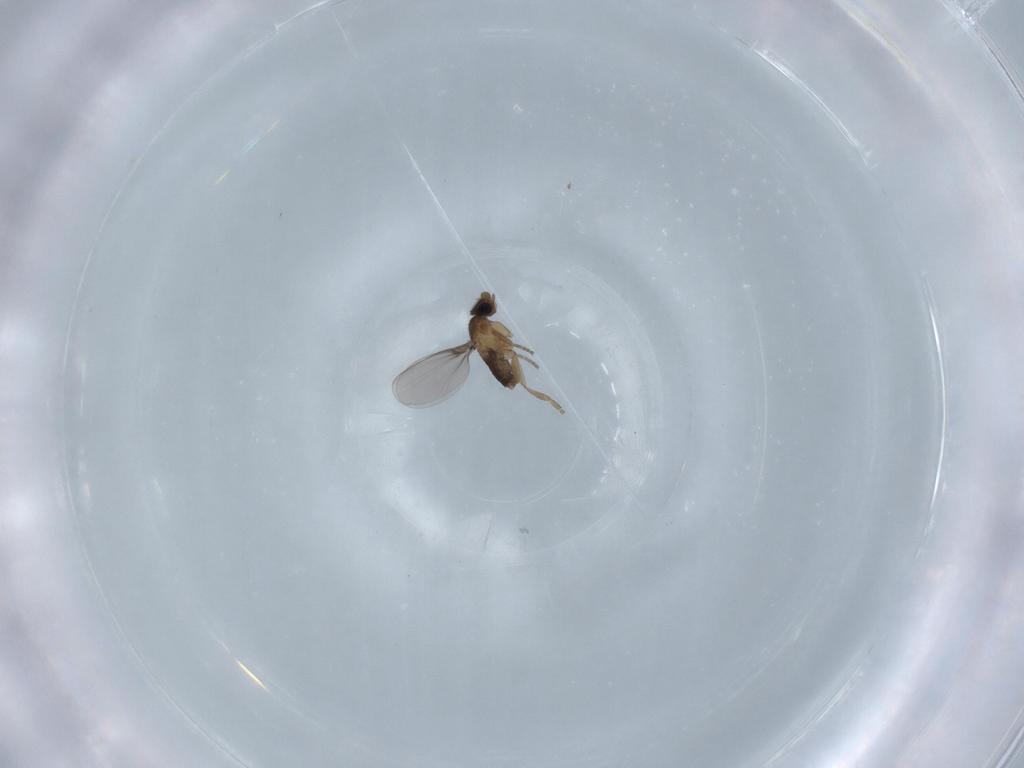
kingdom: Animalia
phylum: Arthropoda
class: Insecta
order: Diptera
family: Phoridae
